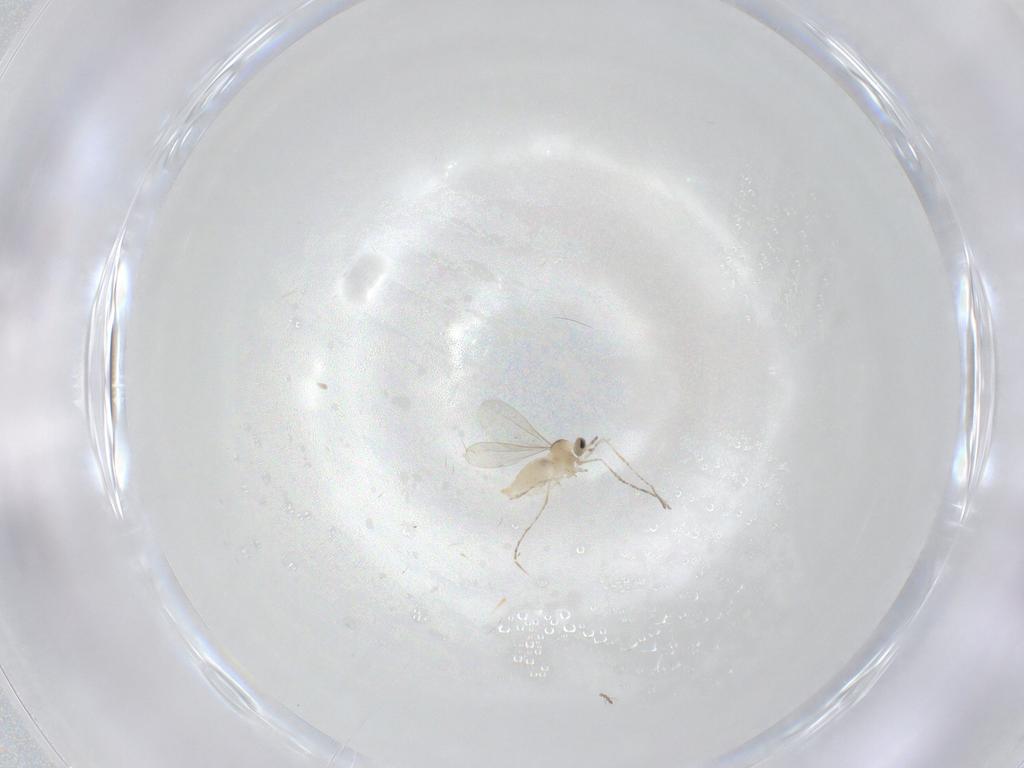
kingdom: Animalia
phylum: Arthropoda
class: Insecta
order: Diptera
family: Cecidomyiidae
